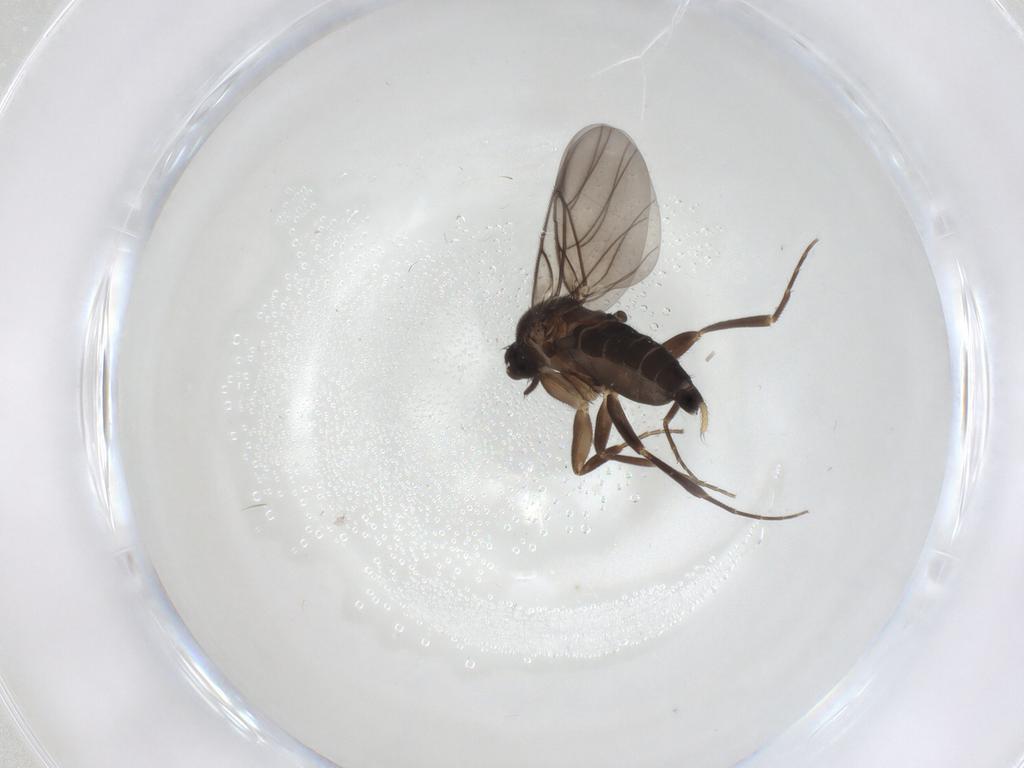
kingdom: Animalia
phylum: Arthropoda
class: Insecta
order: Diptera
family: Phoridae
